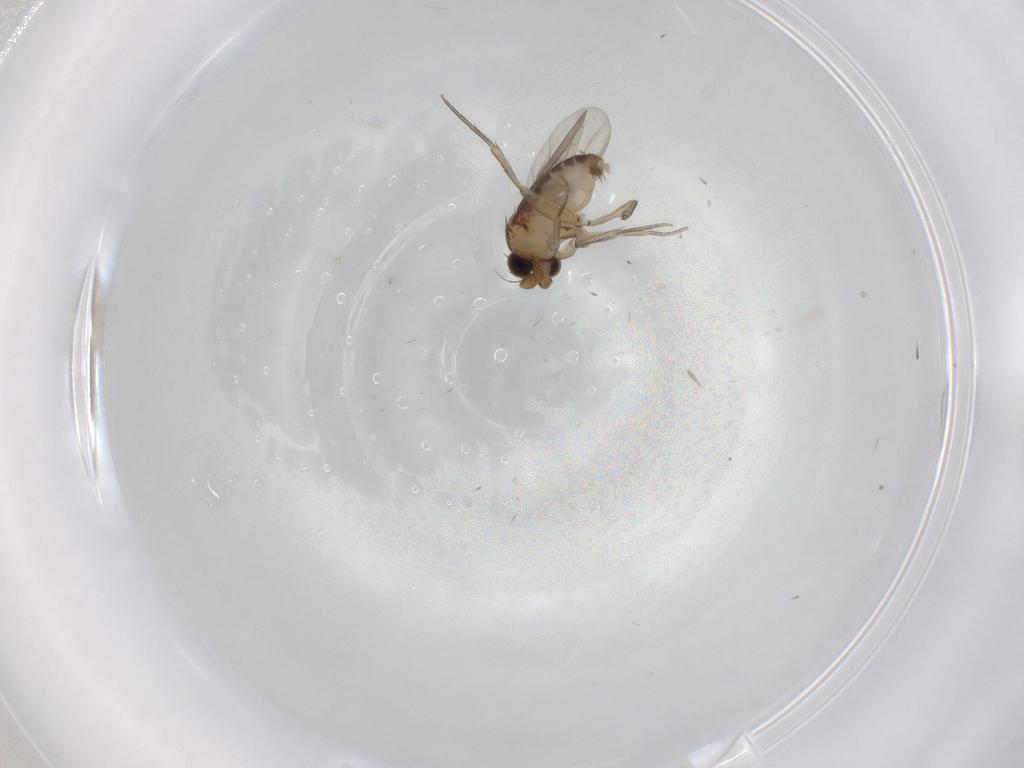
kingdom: Animalia
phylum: Arthropoda
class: Insecta
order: Diptera
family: Phoridae
